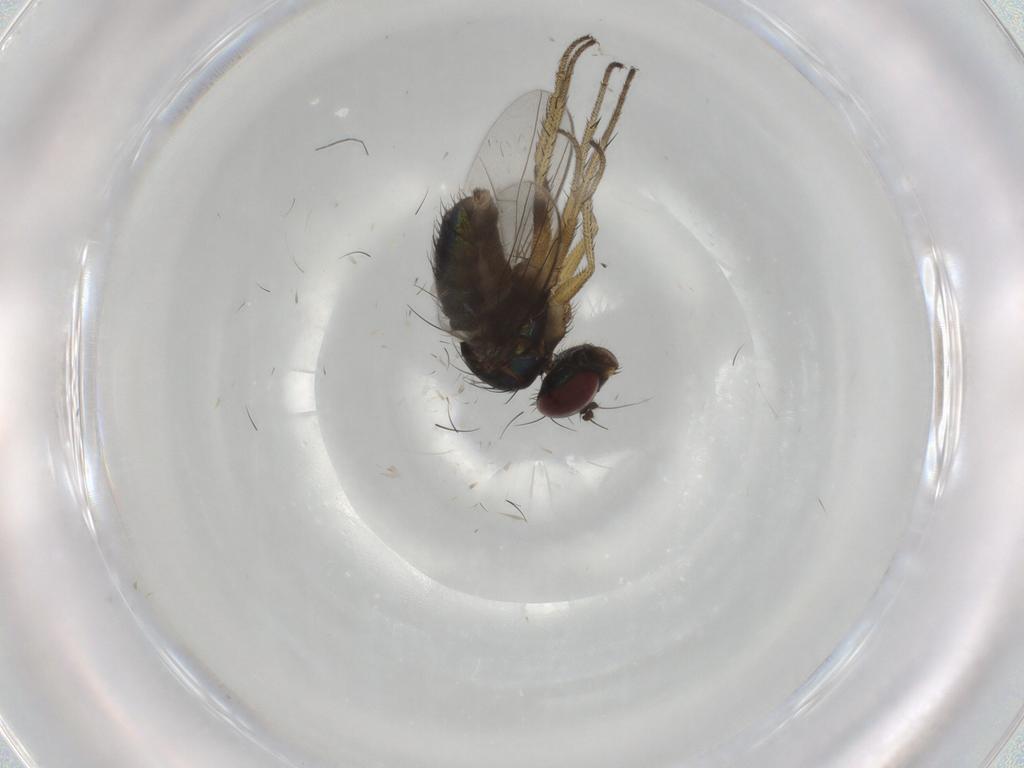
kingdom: Animalia
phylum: Arthropoda
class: Insecta
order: Diptera
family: Dolichopodidae
